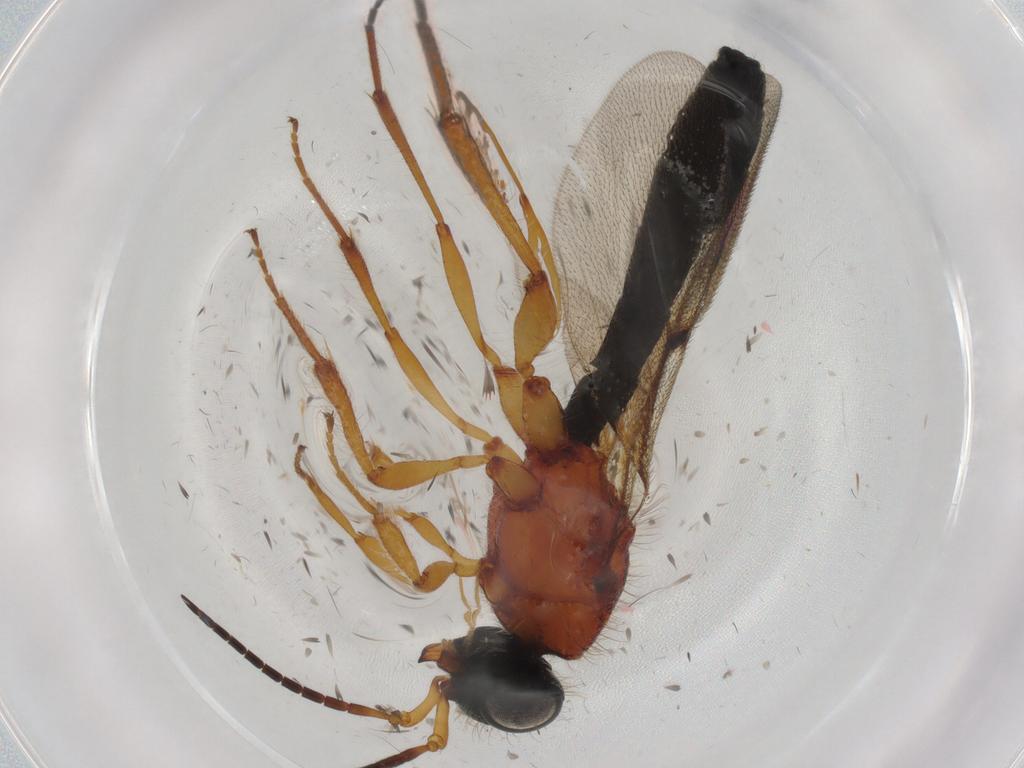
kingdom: Animalia
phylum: Arthropoda
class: Insecta
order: Hymenoptera
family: Scelionidae
